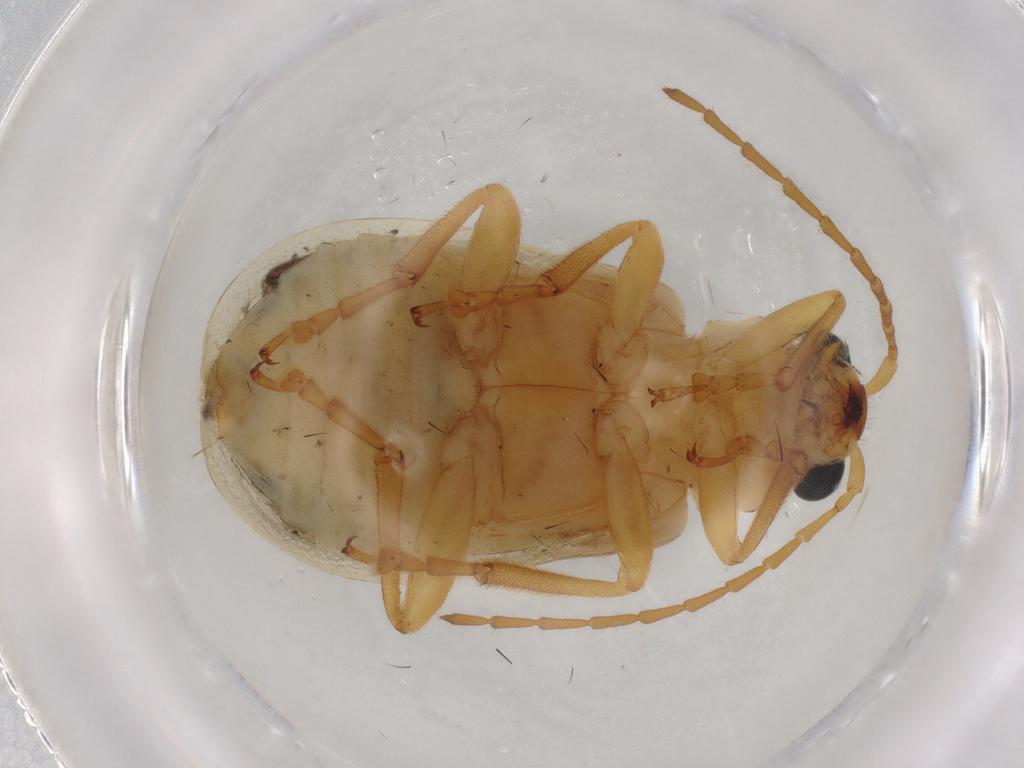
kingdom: Animalia
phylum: Arthropoda
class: Insecta
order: Coleoptera
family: Chrysomelidae
